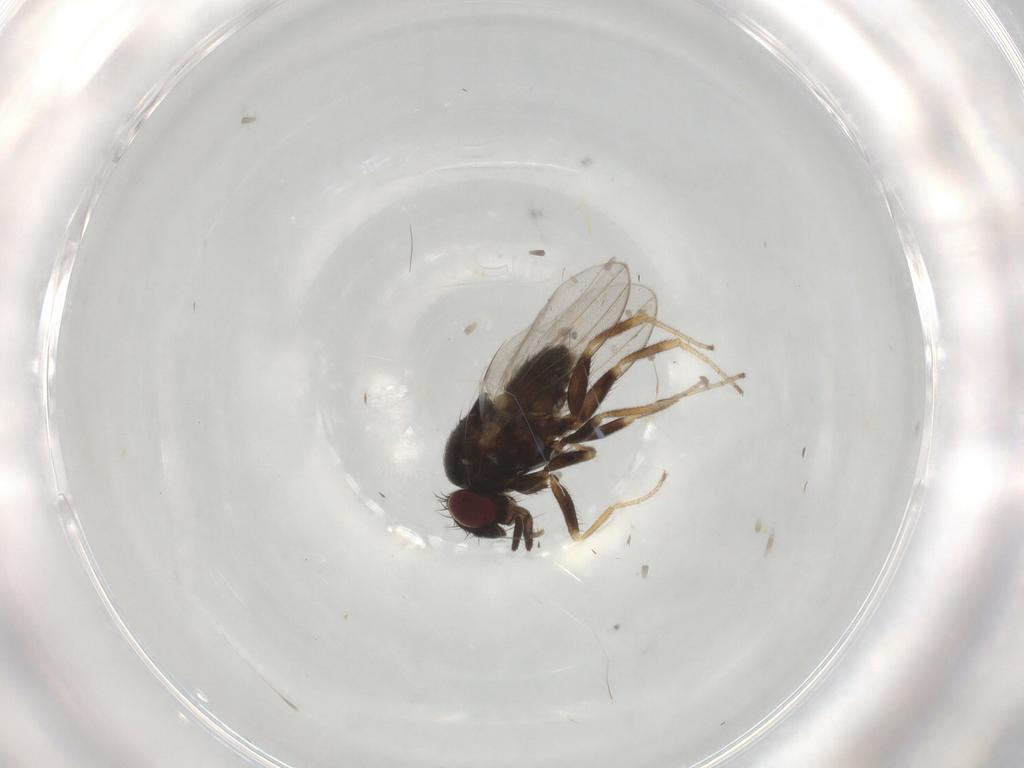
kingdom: Animalia
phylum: Arthropoda
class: Insecta
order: Diptera
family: Milichiidae
